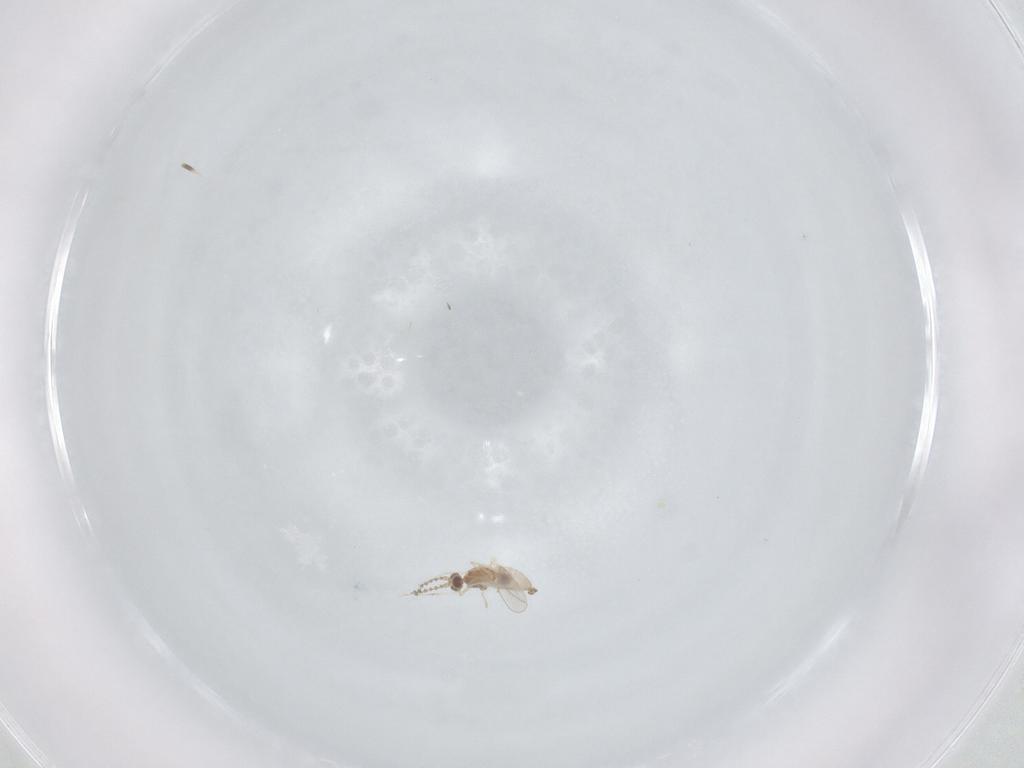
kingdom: Animalia
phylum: Arthropoda
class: Insecta
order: Diptera
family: Cecidomyiidae
